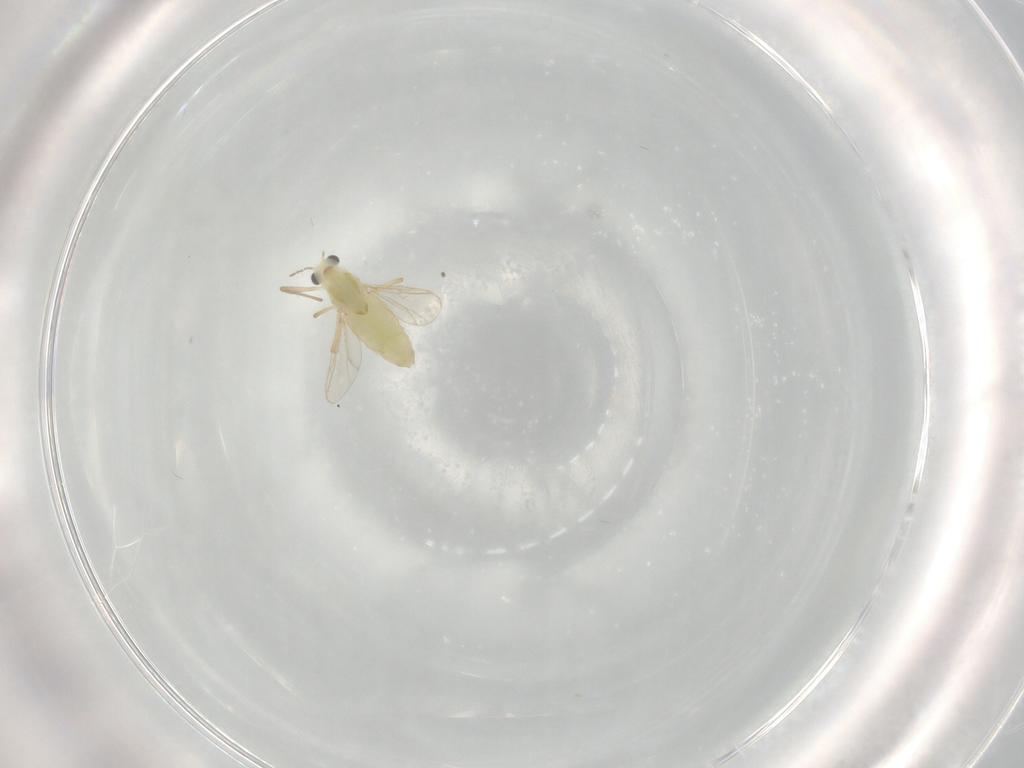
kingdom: Animalia
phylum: Arthropoda
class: Insecta
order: Diptera
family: Chironomidae
